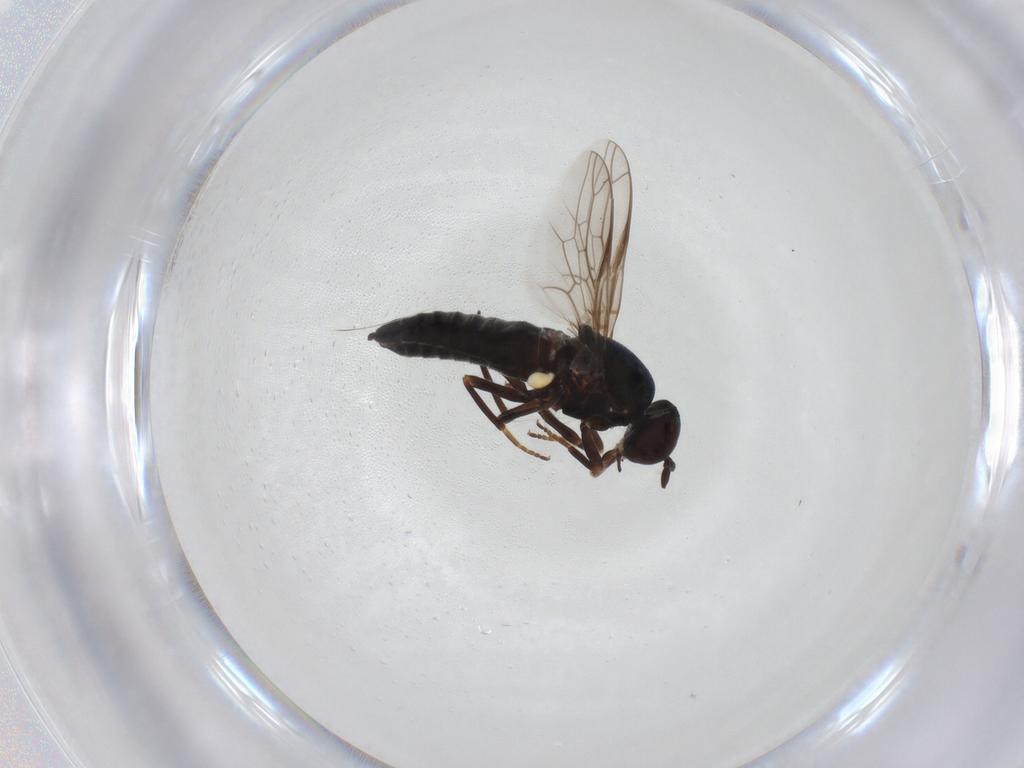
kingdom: Animalia
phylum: Arthropoda
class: Insecta
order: Diptera
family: Scenopinidae
